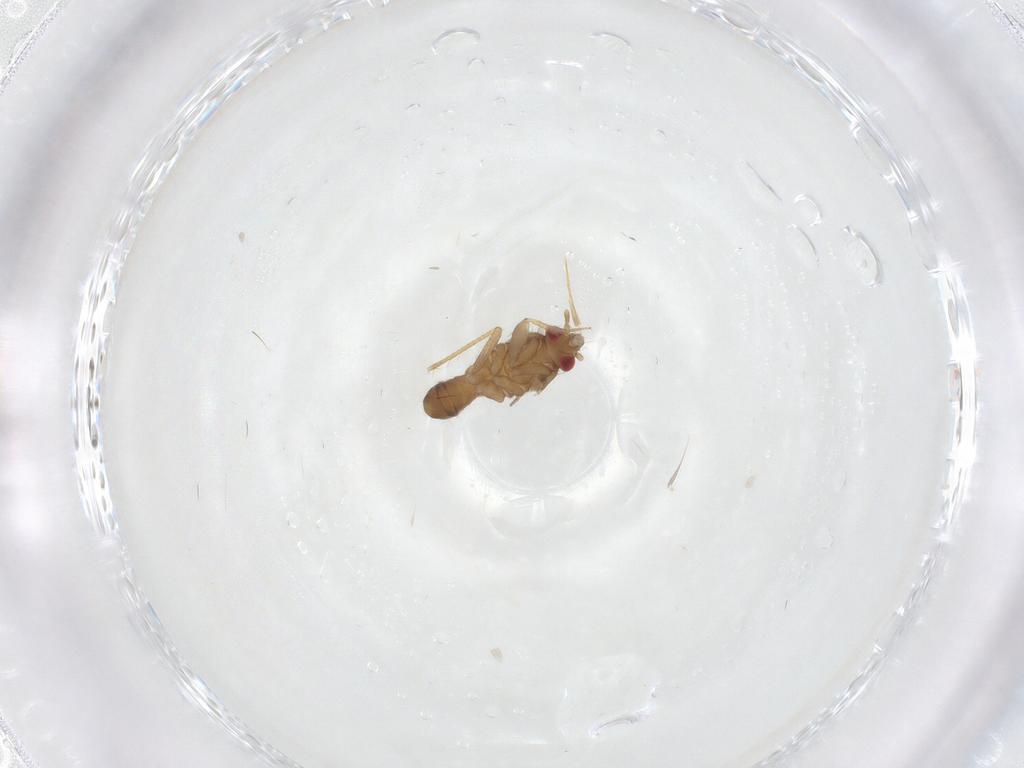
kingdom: Animalia
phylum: Arthropoda
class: Insecta
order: Hemiptera
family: Ceratocombidae
